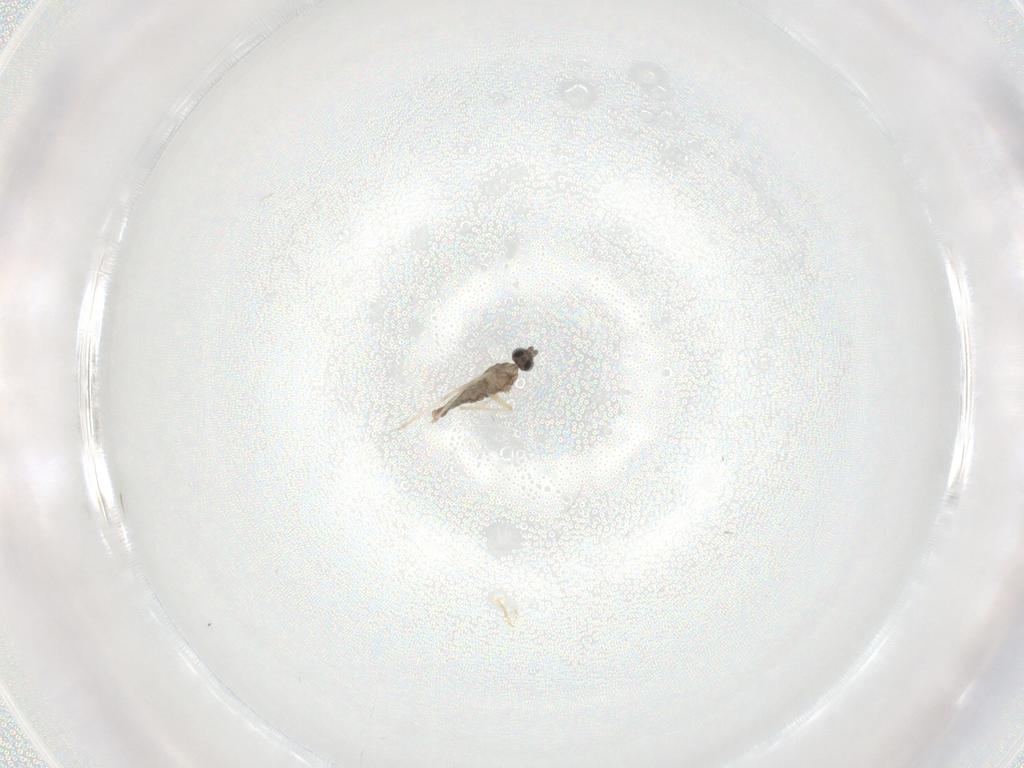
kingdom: Animalia
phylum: Arthropoda
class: Insecta
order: Diptera
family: Cecidomyiidae
